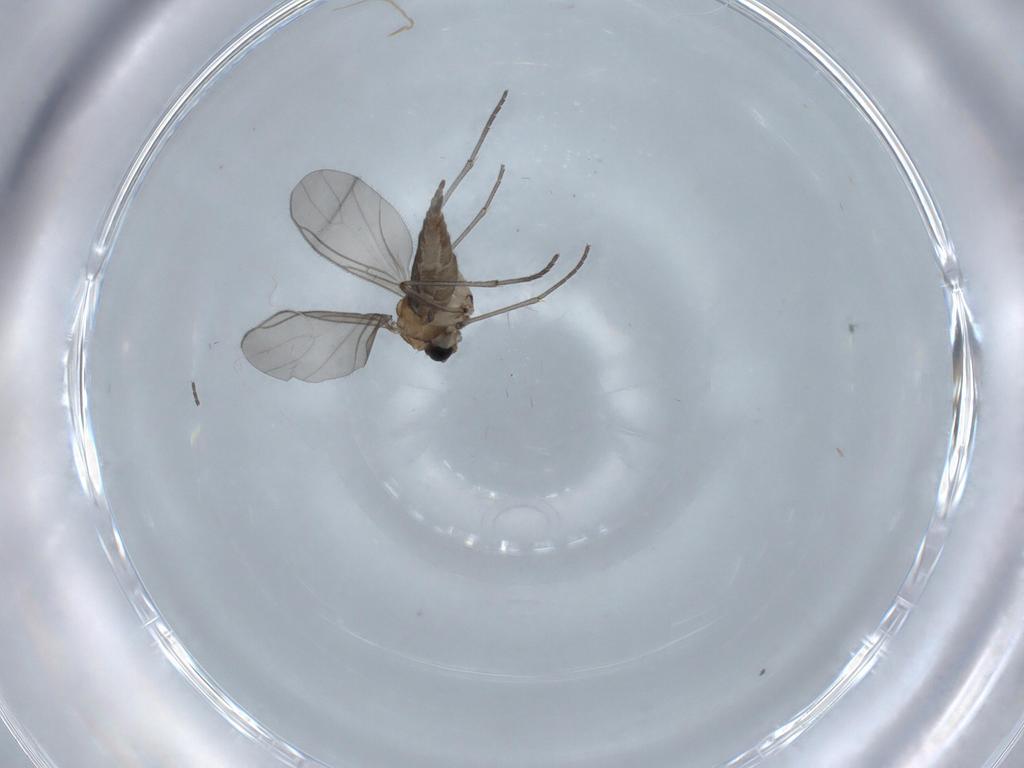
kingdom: Animalia
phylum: Arthropoda
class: Insecta
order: Diptera
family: Sciaridae
